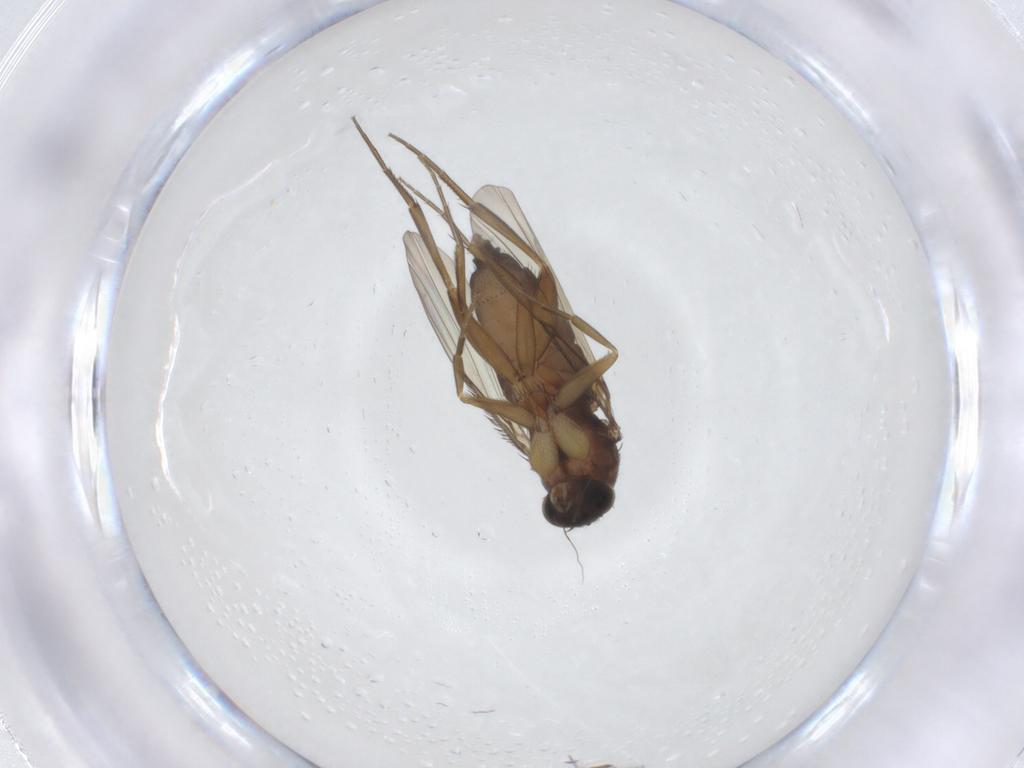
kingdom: Animalia
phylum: Arthropoda
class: Insecta
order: Diptera
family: Phoridae
